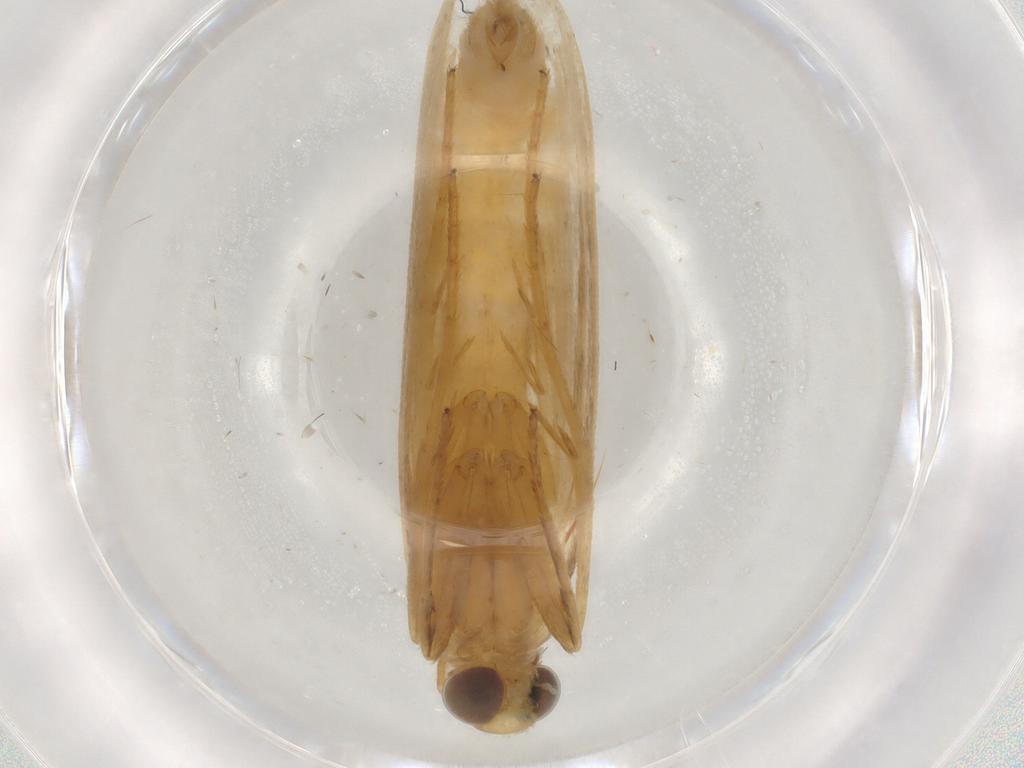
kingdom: Animalia
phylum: Arthropoda
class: Insecta
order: Lepidoptera
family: Pyralidae
